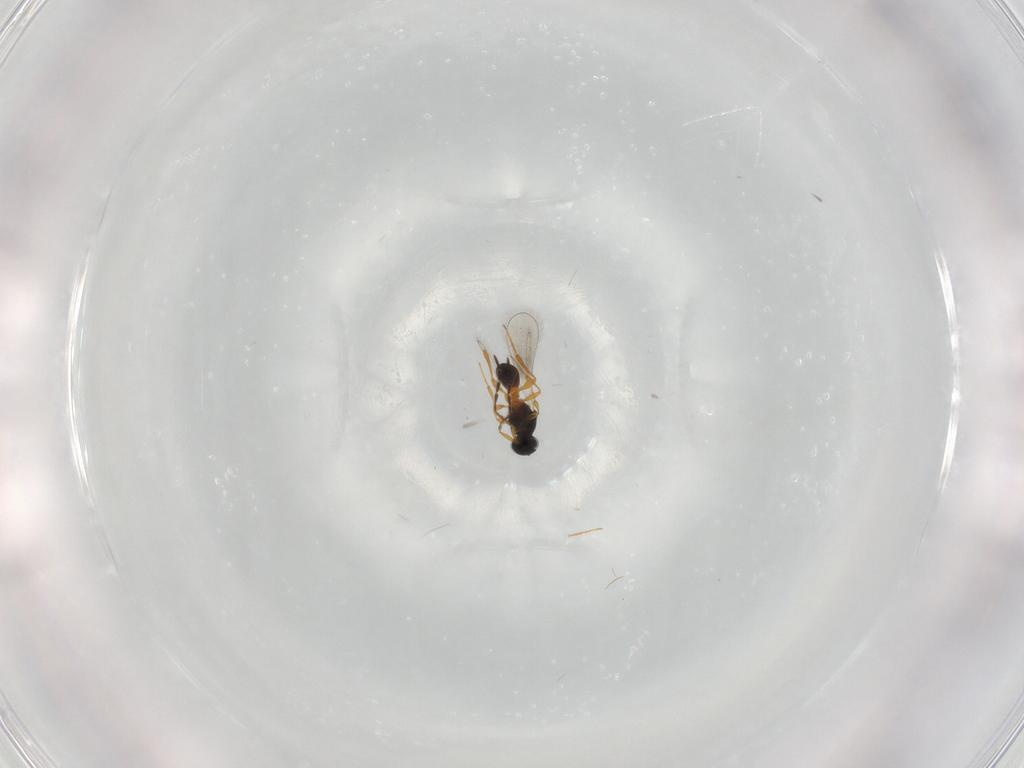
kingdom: Animalia
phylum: Arthropoda
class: Insecta
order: Hymenoptera
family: Platygastridae
